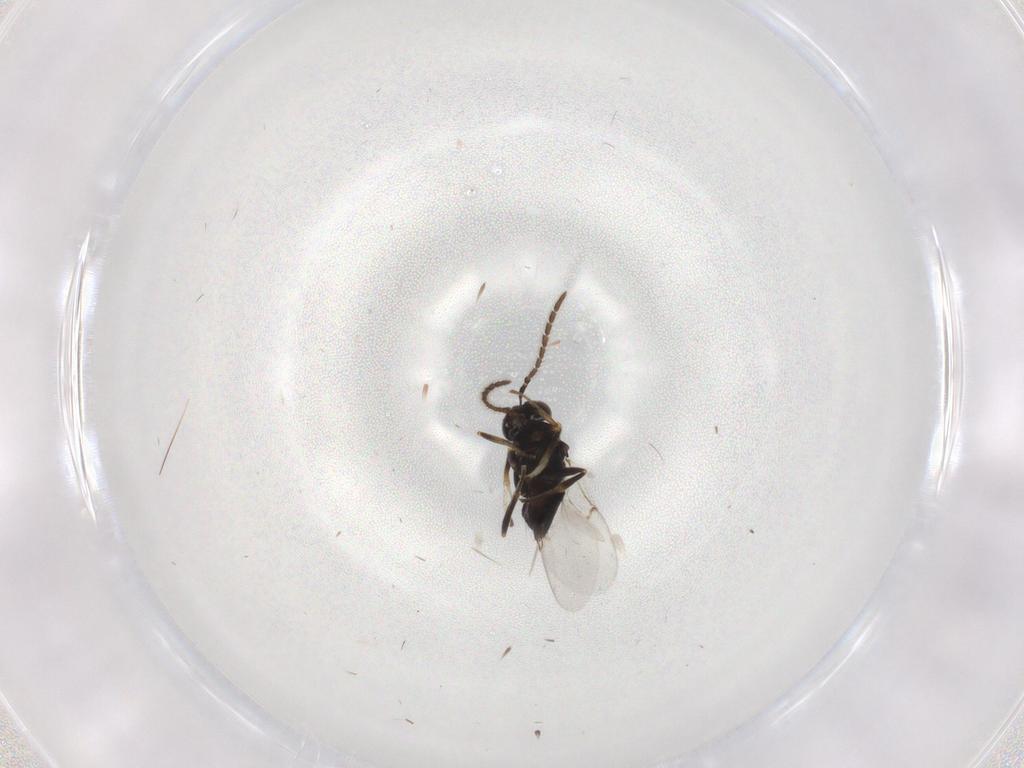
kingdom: Animalia
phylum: Arthropoda
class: Insecta
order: Hymenoptera
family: Encyrtidae
